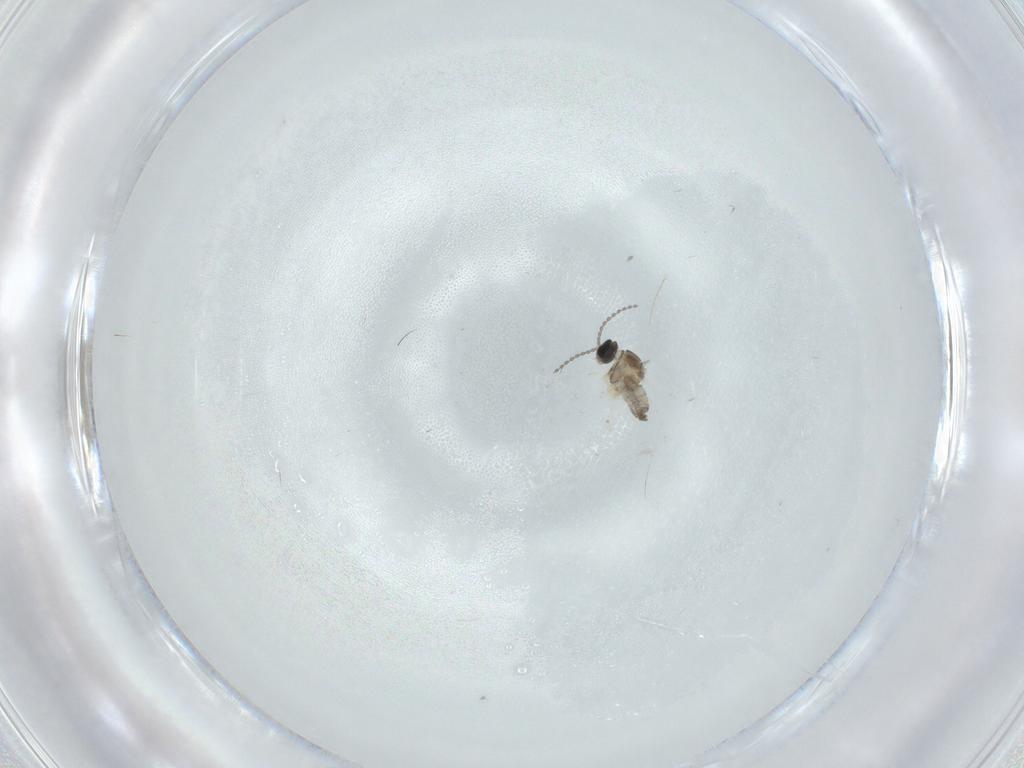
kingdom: Animalia
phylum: Arthropoda
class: Insecta
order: Diptera
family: Cecidomyiidae
